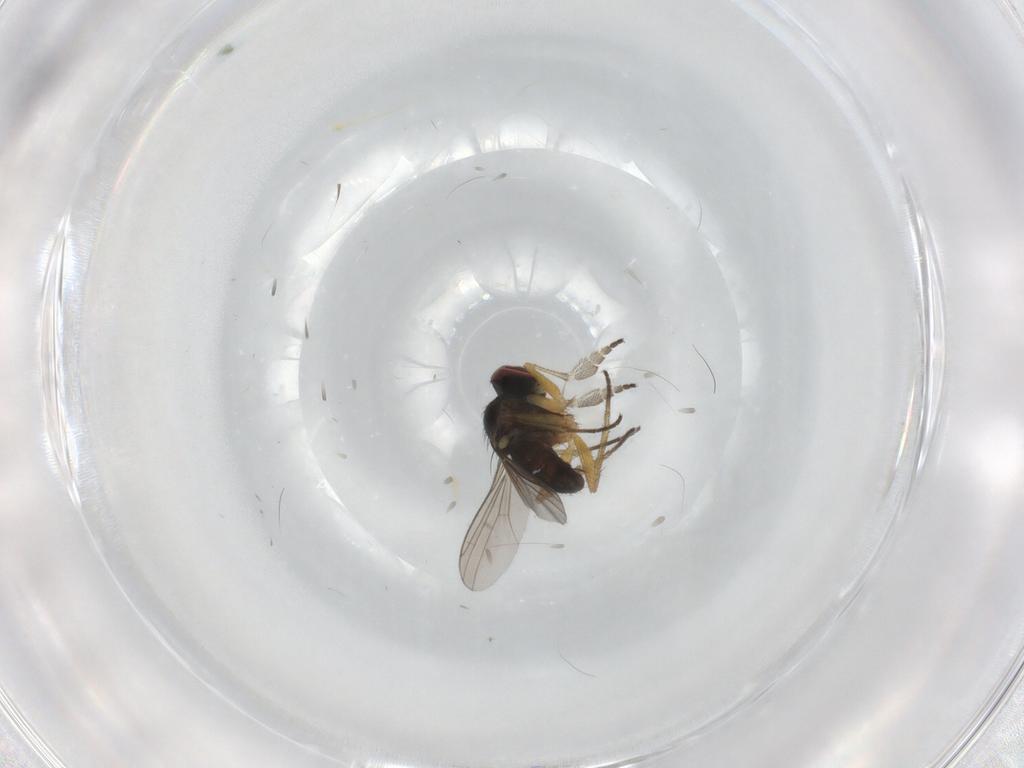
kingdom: Animalia
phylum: Arthropoda
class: Insecta
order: Diptera
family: Dolichopodidae
